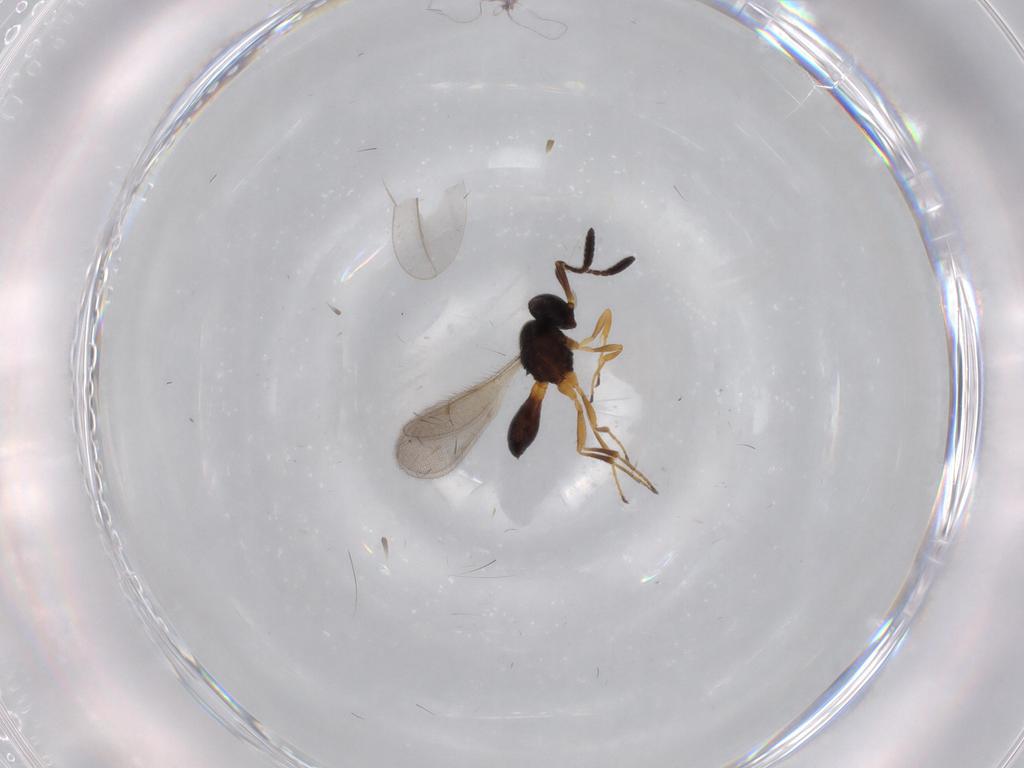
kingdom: Animalia
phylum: Arthropoda
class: Insecta
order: Hymenoptera
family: Scelionidae
